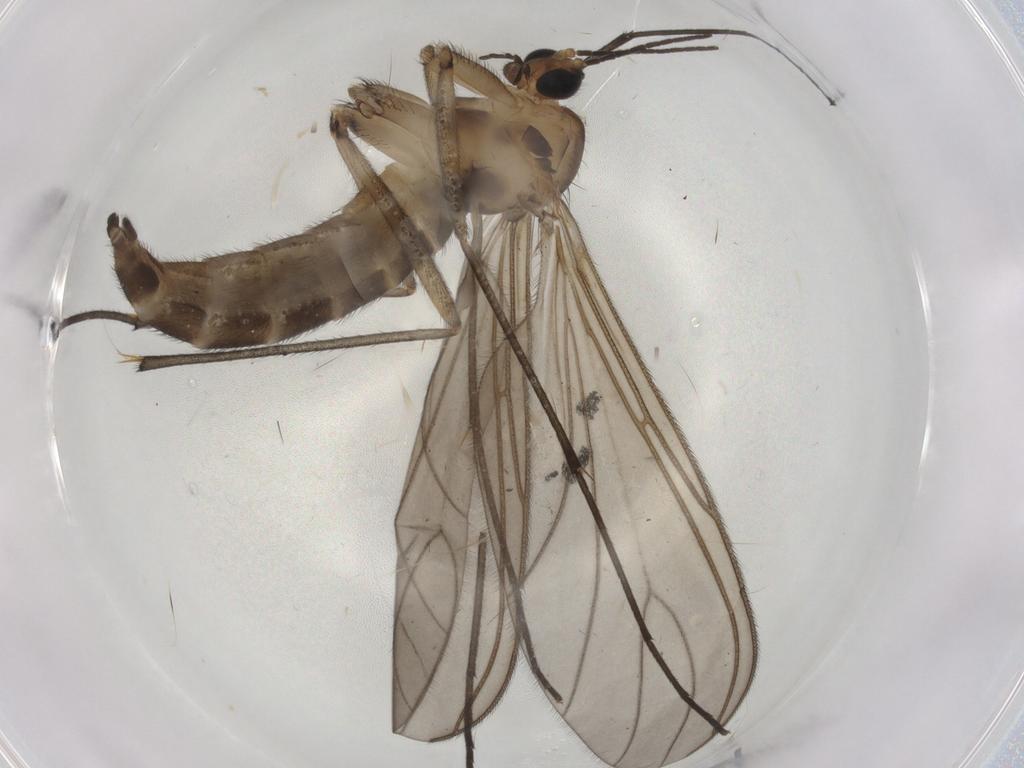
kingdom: Animalia
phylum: Arthropoda
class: Insecta
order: Diptera
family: Sciaridae
